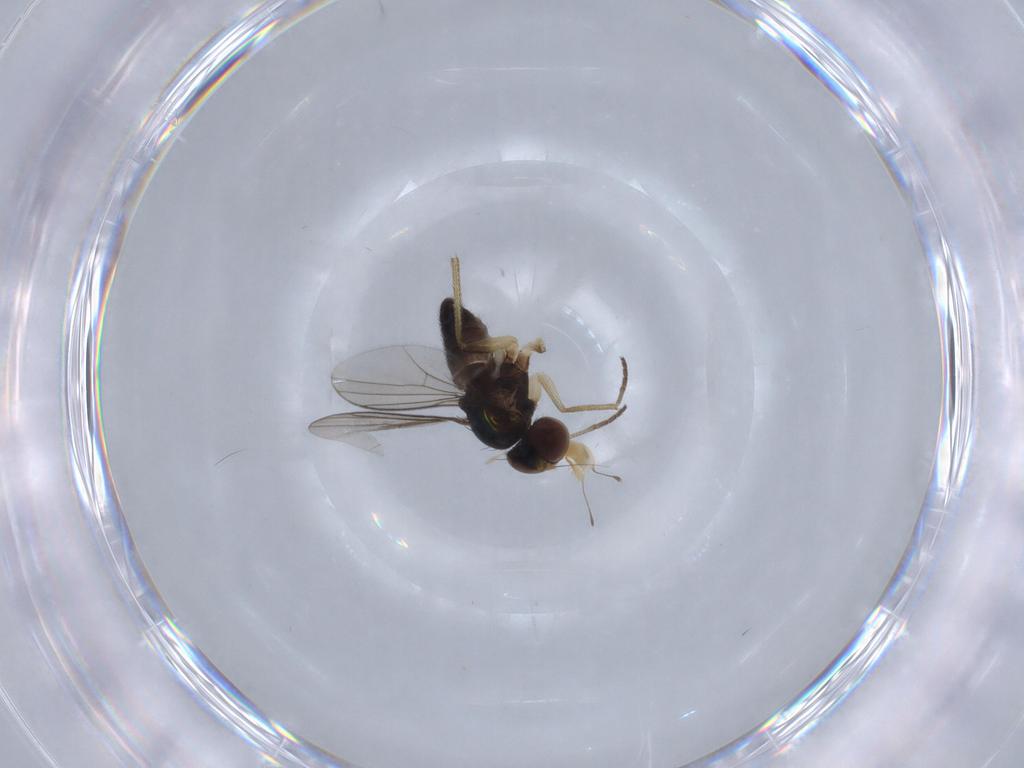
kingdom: Animalia
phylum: Arthropoda
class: Insecta
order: Diptera
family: Dolichopodidae
